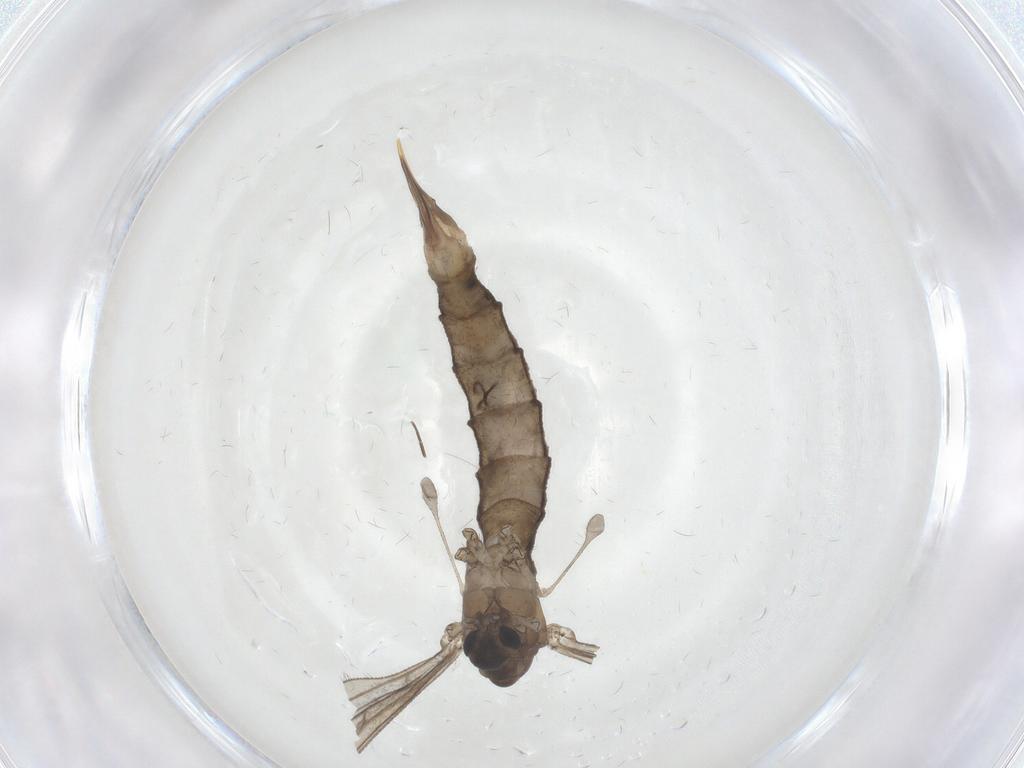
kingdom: Animalia
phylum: Arthropoda
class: Insecta
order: Diptera
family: Limoniidae
